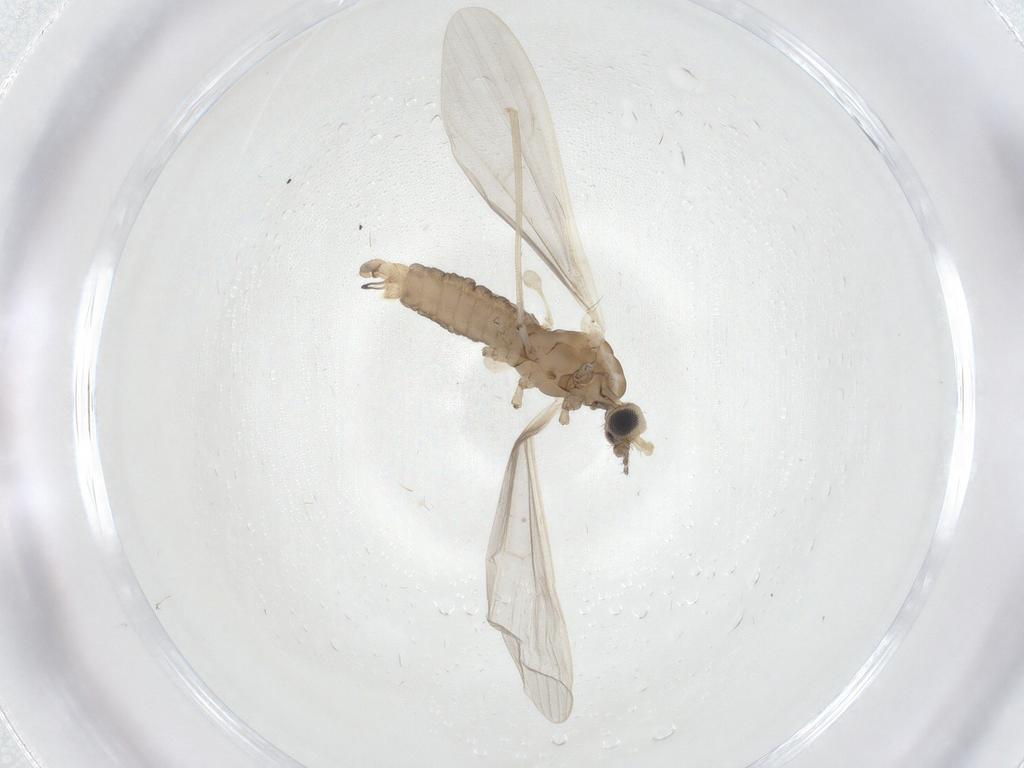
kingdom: Animalia
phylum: Arthropoda
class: Insecta
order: Diptera
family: Limoniidae
